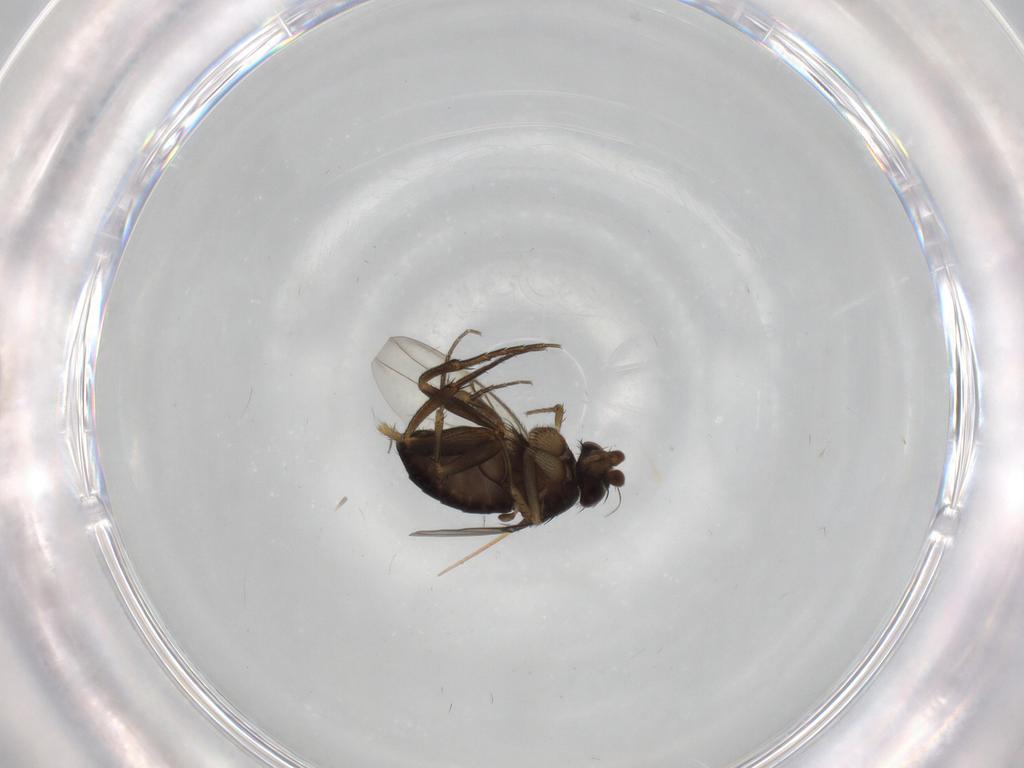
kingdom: Animalia
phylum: Arthropoda
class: Insecta
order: Diptera
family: Phoridae
